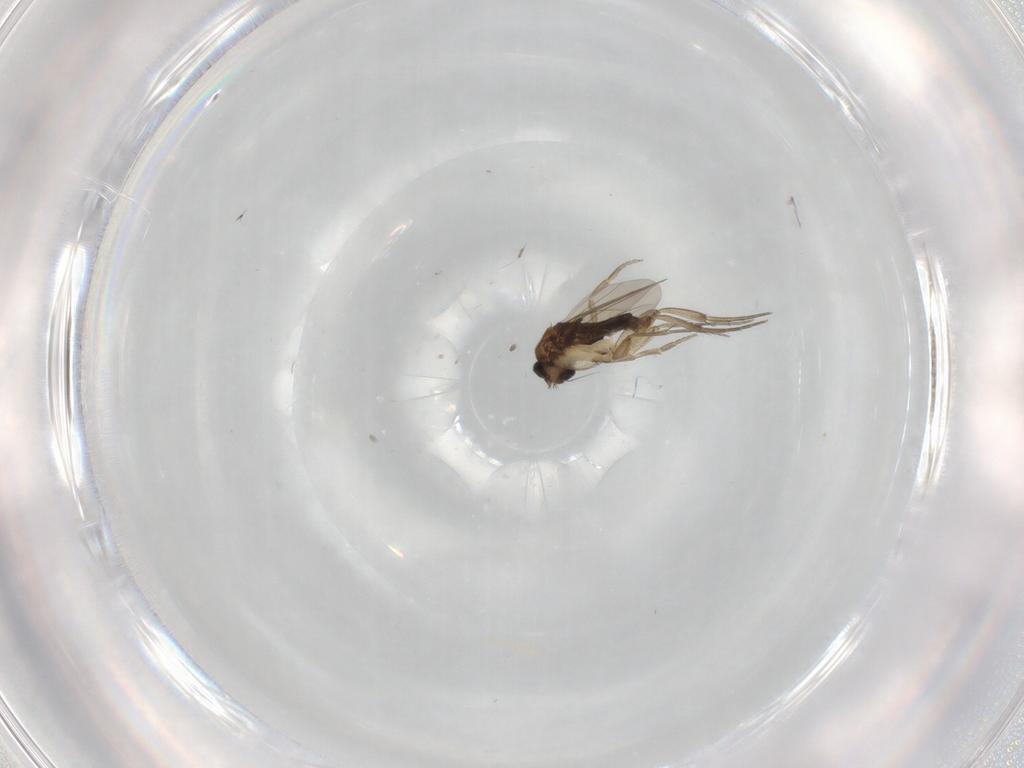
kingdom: Animalia
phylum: Arthropoda
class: Insecta
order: Diptera
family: Phoridae
